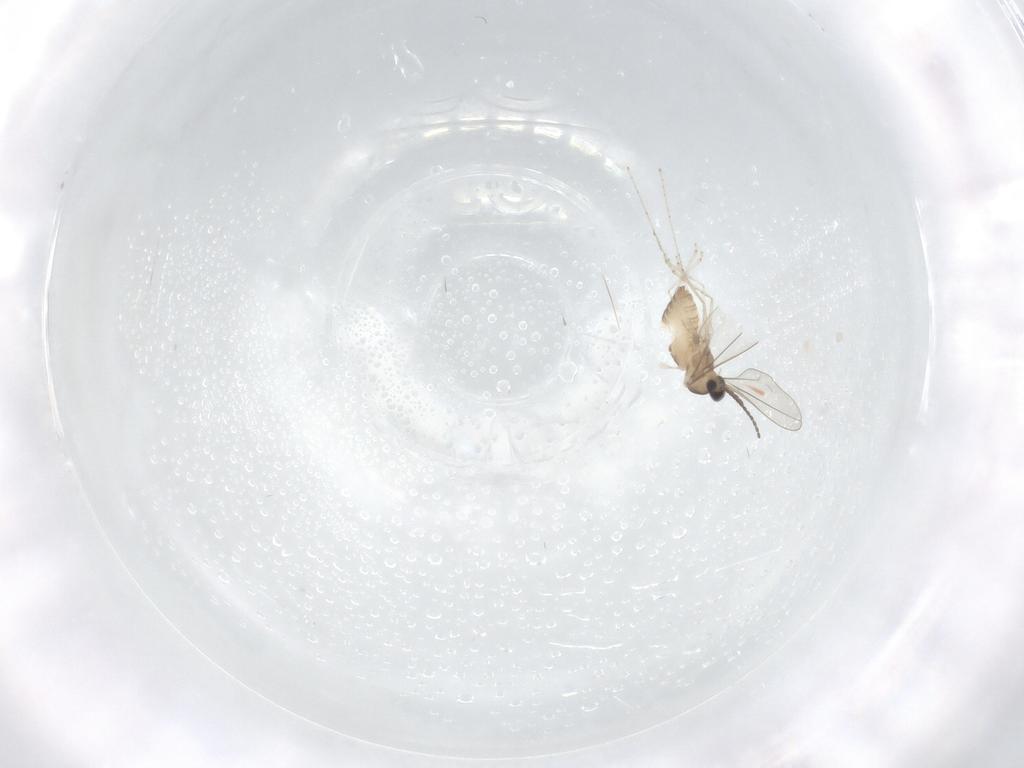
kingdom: Animalia
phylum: Arthropoda
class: Insecta
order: Diptera
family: Cecidomyiidae
